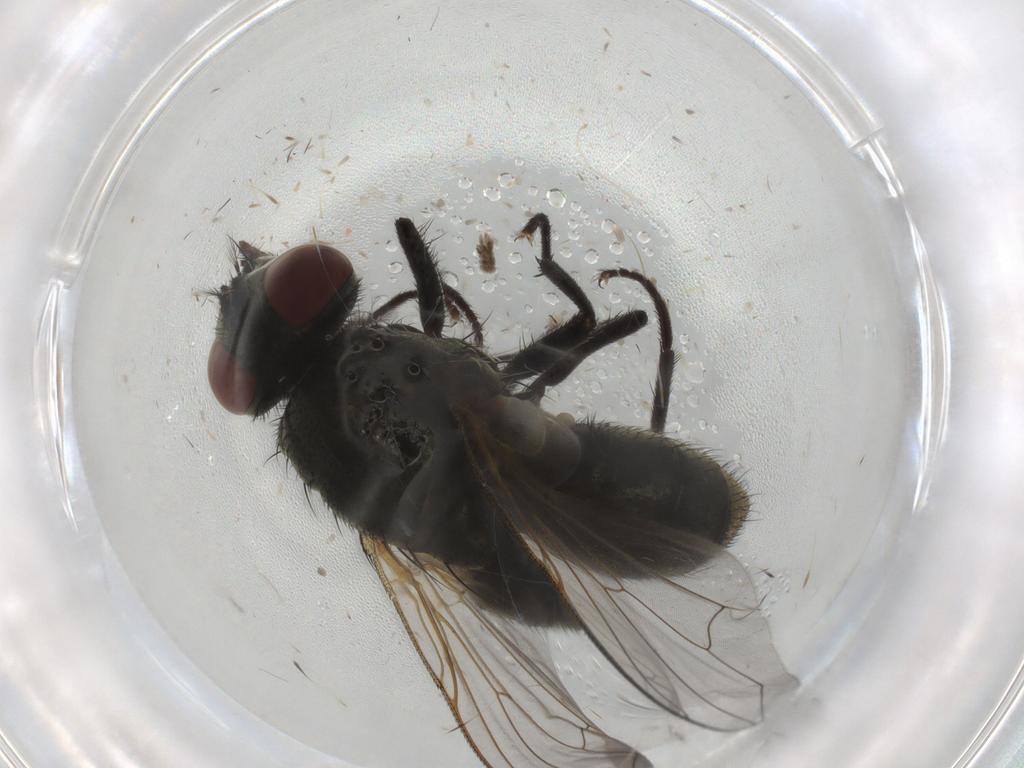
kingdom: Animalia
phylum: Arthropoda
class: Insecta
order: Diptera
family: Muscidae
